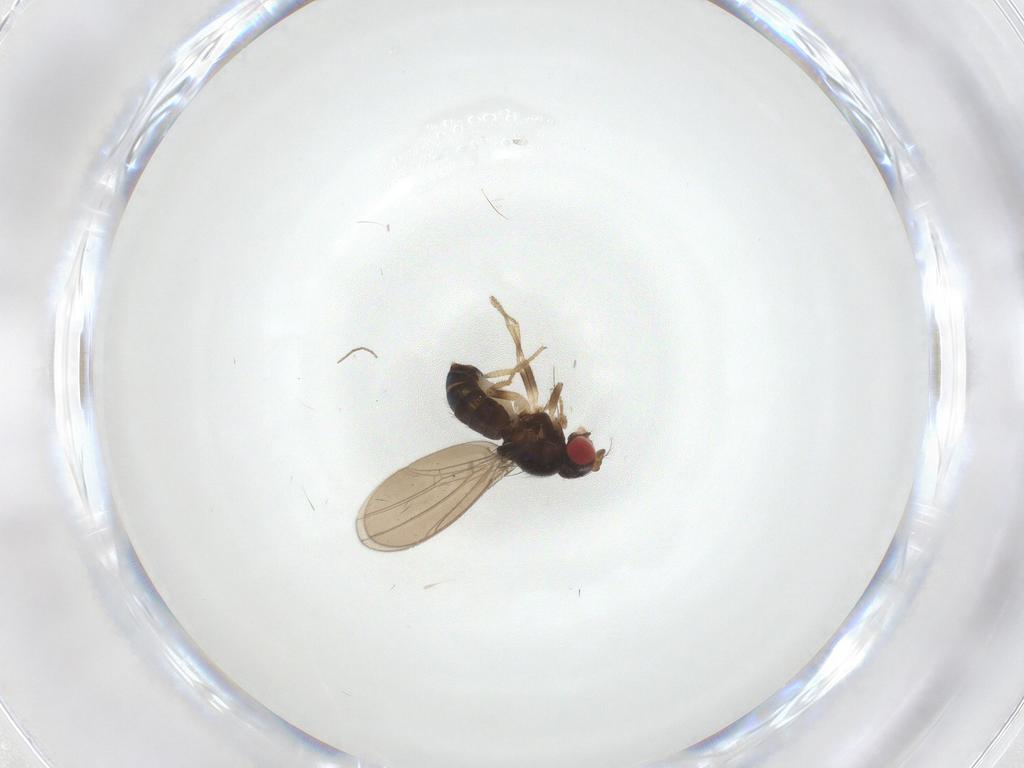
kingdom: Animalia
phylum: Arthropoda
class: Insecta
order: Diptera
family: Drosophilidae
